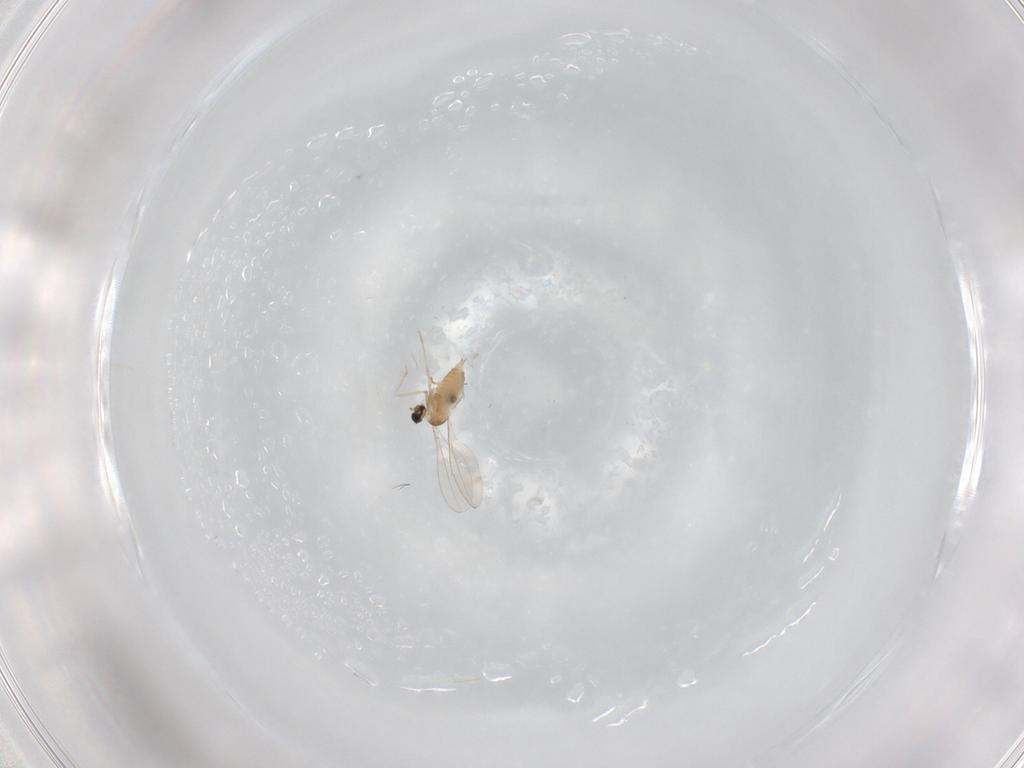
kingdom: Animalia
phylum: Arthropoda
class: Insecta
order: Diptera
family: Cecidomyiidae
